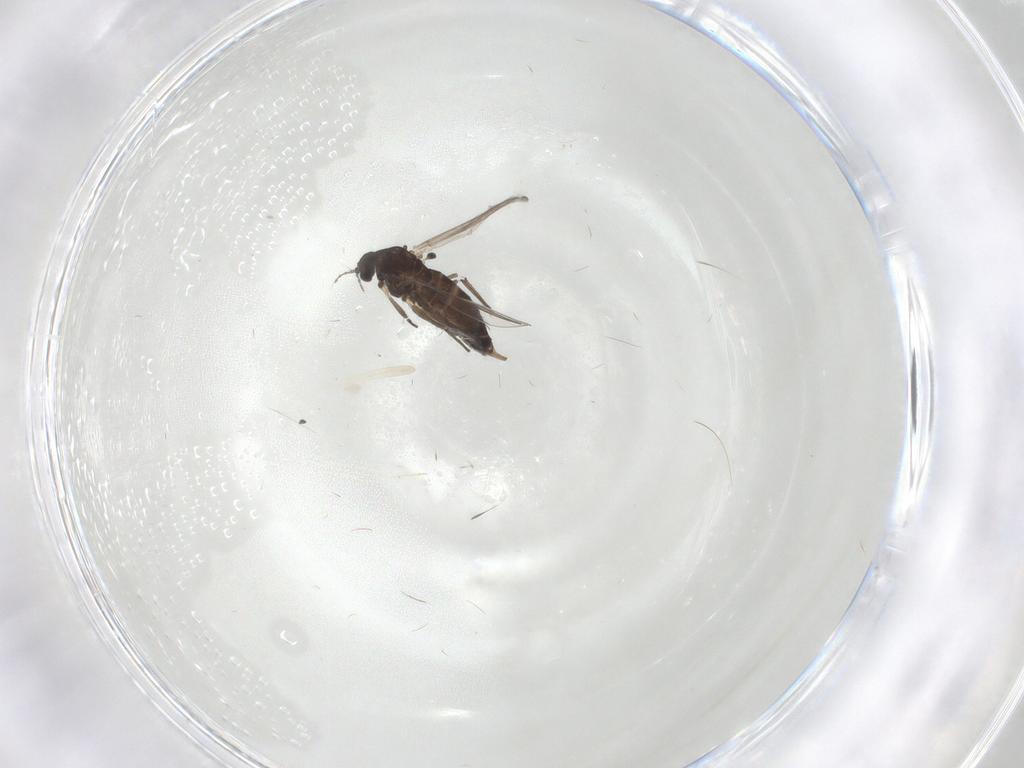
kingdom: Animalia
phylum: Arthropoda
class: Insecta
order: Diptera
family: Chironomidae
